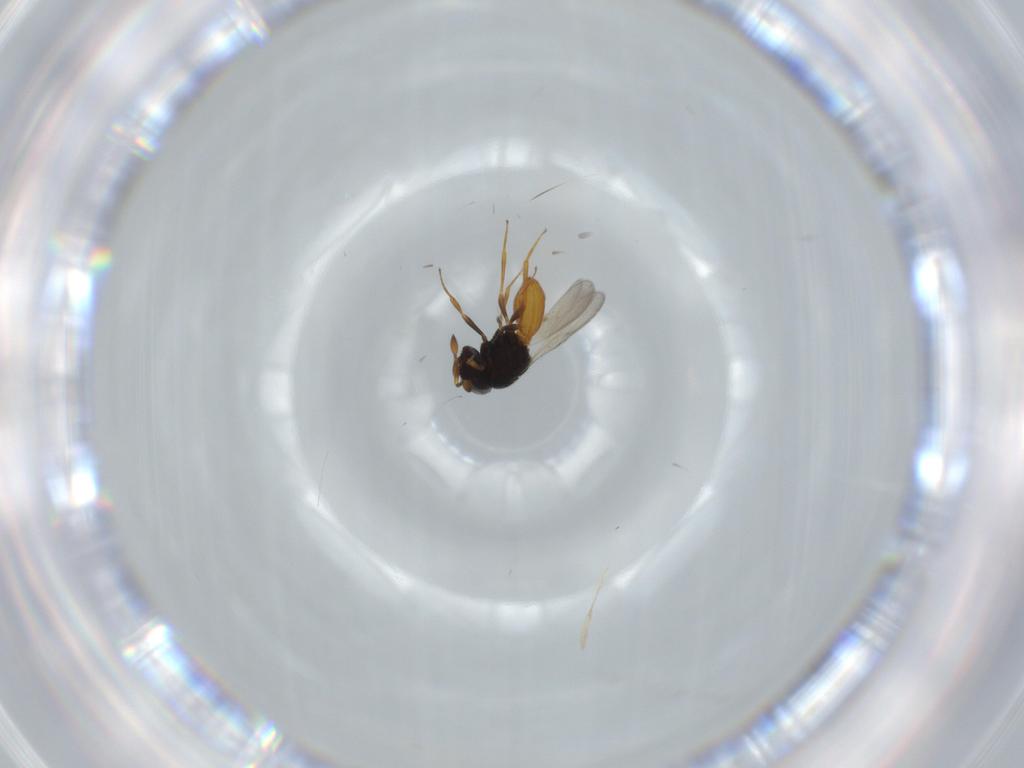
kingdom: Animalia
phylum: Arthropoda
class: Insecta
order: Hymenoptera
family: Scelionidae
